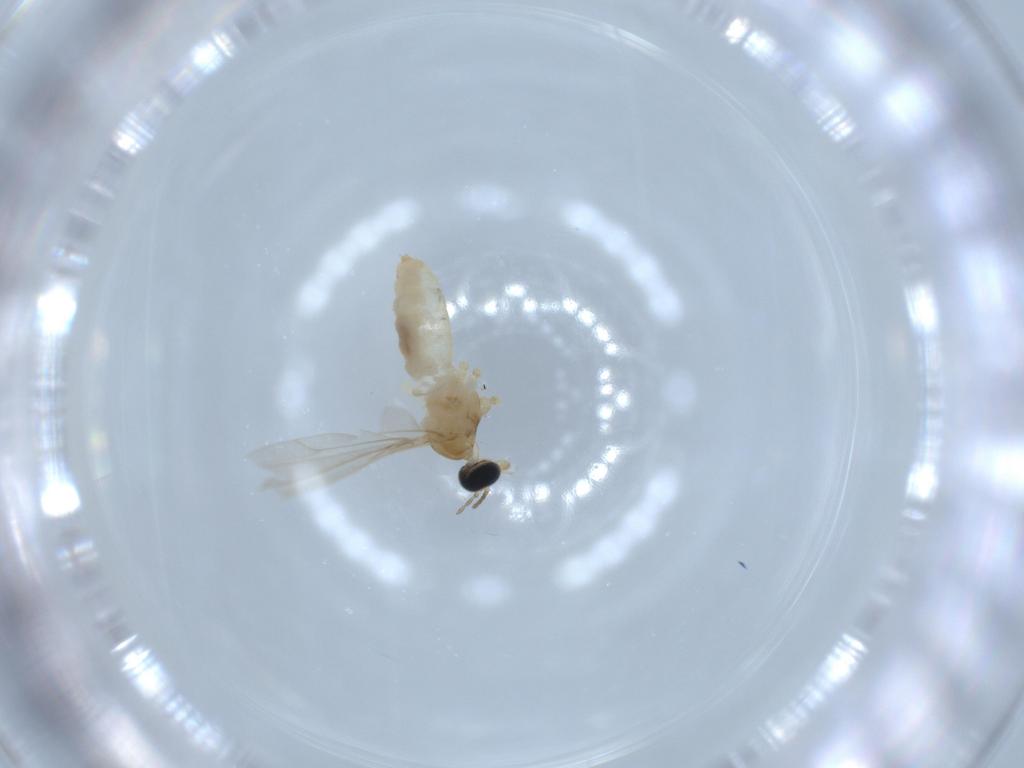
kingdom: Animalia
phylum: Arthropoda
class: Insecta
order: Diptera
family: Cecidomyiidae
